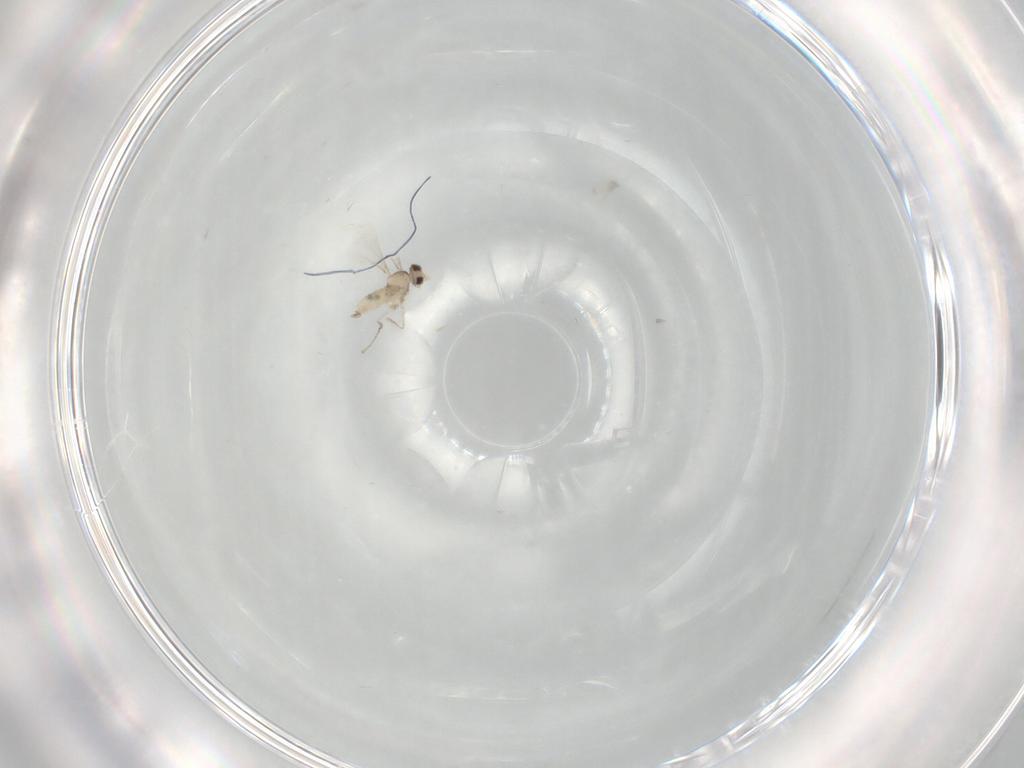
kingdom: Animalia
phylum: Arthropoda
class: Insecta
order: Diptera
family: Cecidomyiidae
